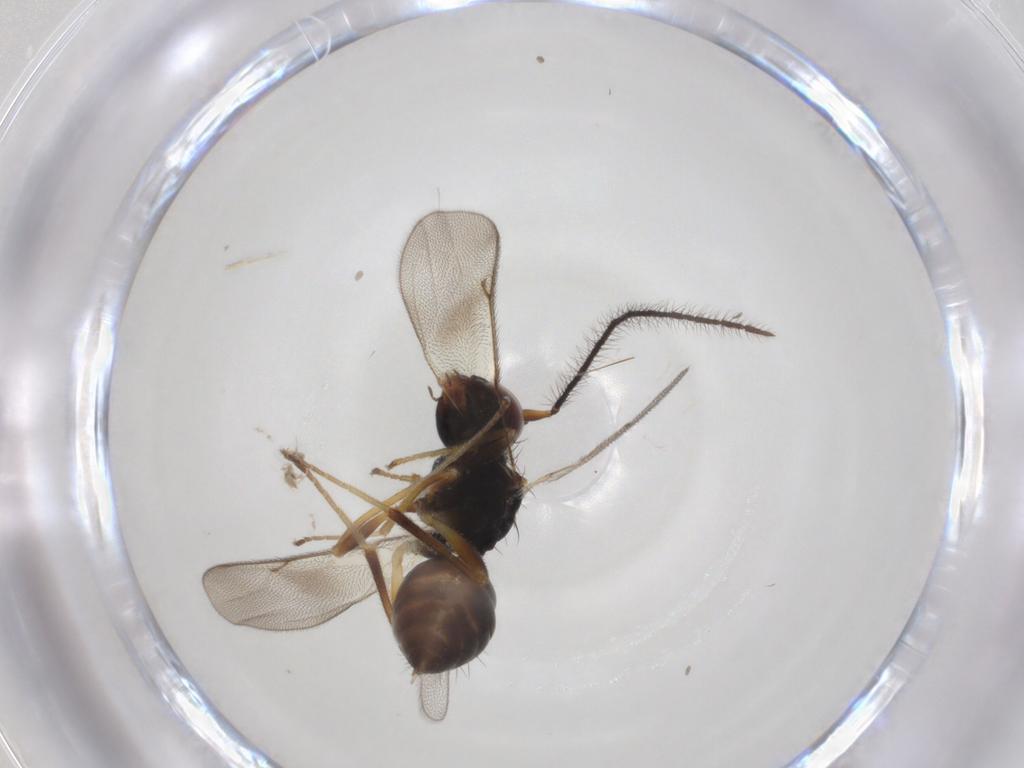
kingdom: Animalia
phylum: Arthropoda
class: Insecta
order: Hymenoptera
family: Diparidae
